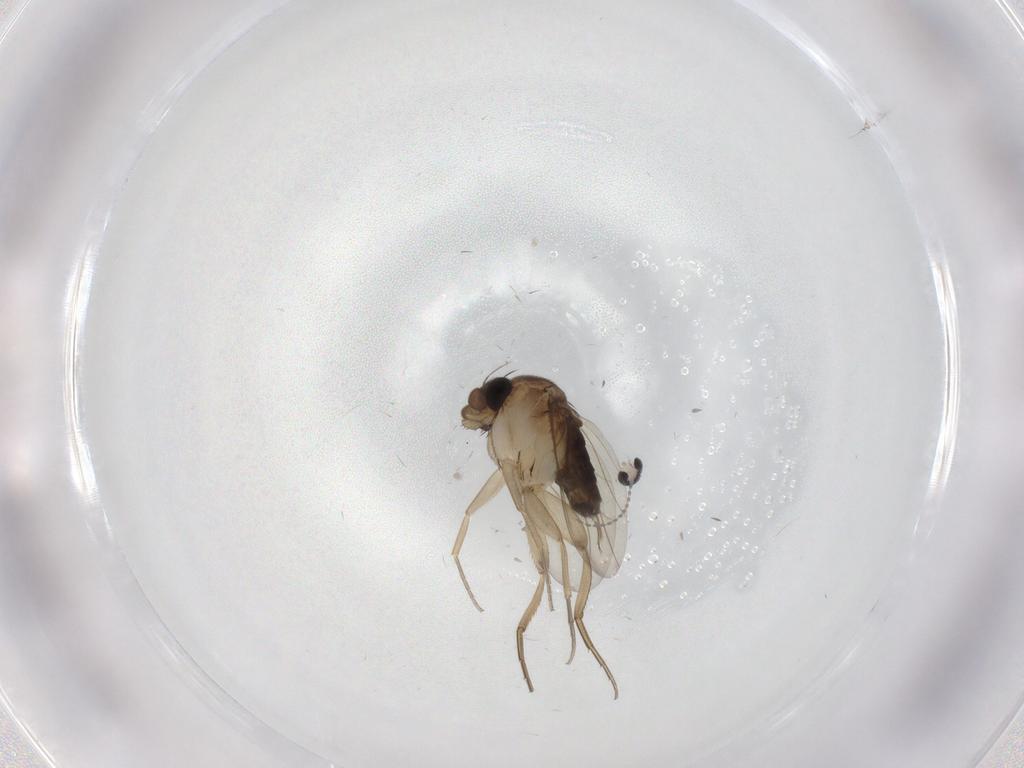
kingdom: Animalia
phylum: Arthropoda
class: Insecta
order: Diptera
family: Cecidomyiidae
